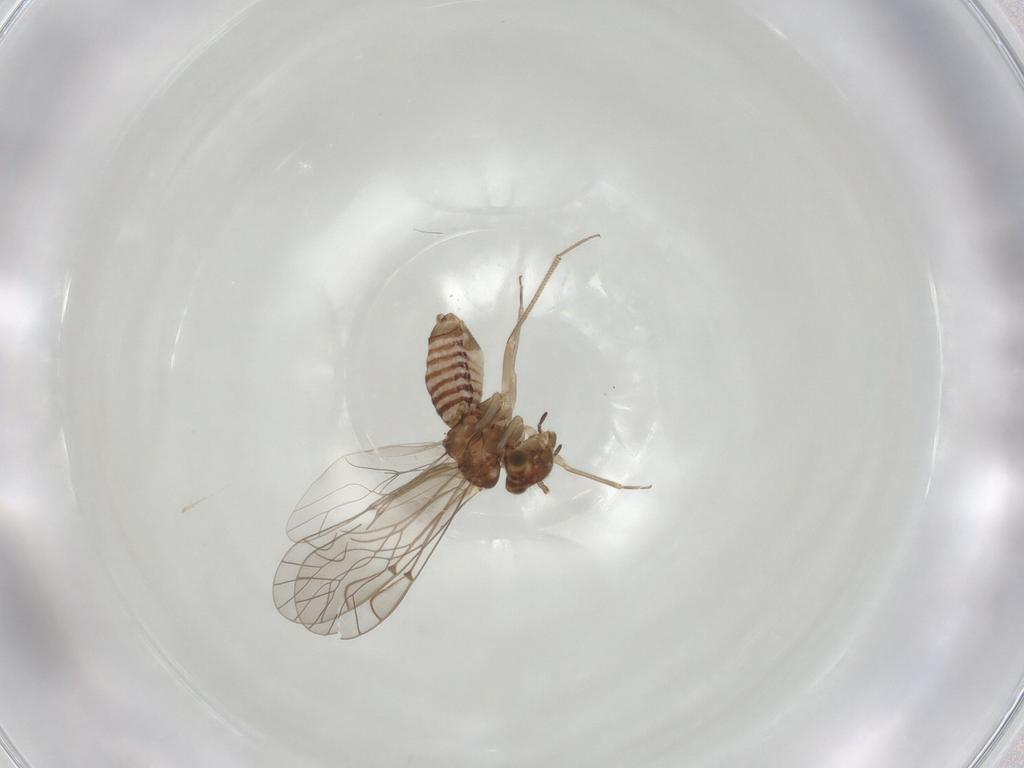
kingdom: Animalia
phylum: Arthropoda
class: Insecta
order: Psocodea
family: Lachesillidae
